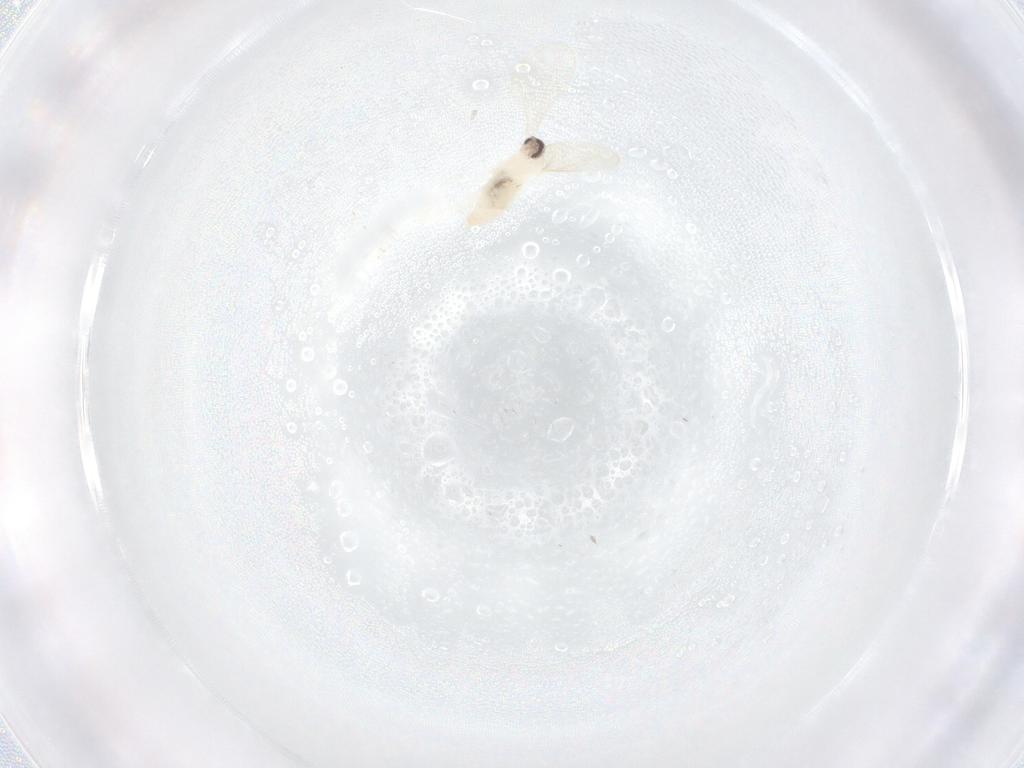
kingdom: Animalia
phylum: Arthropoda
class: Insecta
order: Diptera
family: Cecidomyiidae
